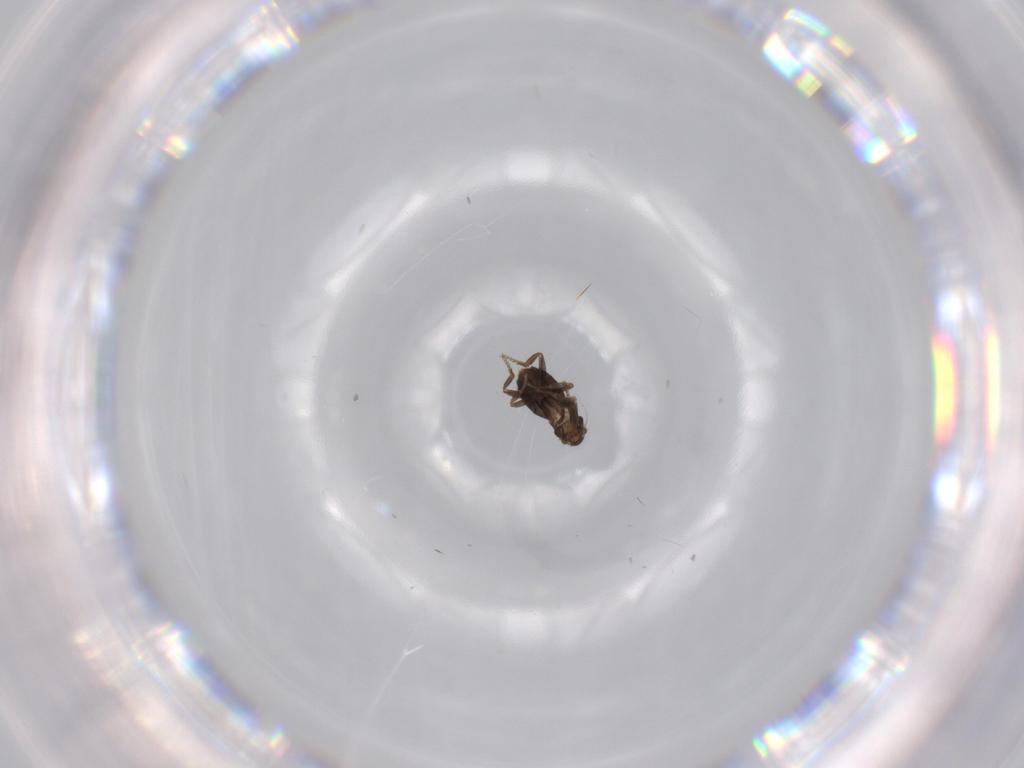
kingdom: Animalia
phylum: Arthropoda
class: Insecta
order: Diptera
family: Phoridae
